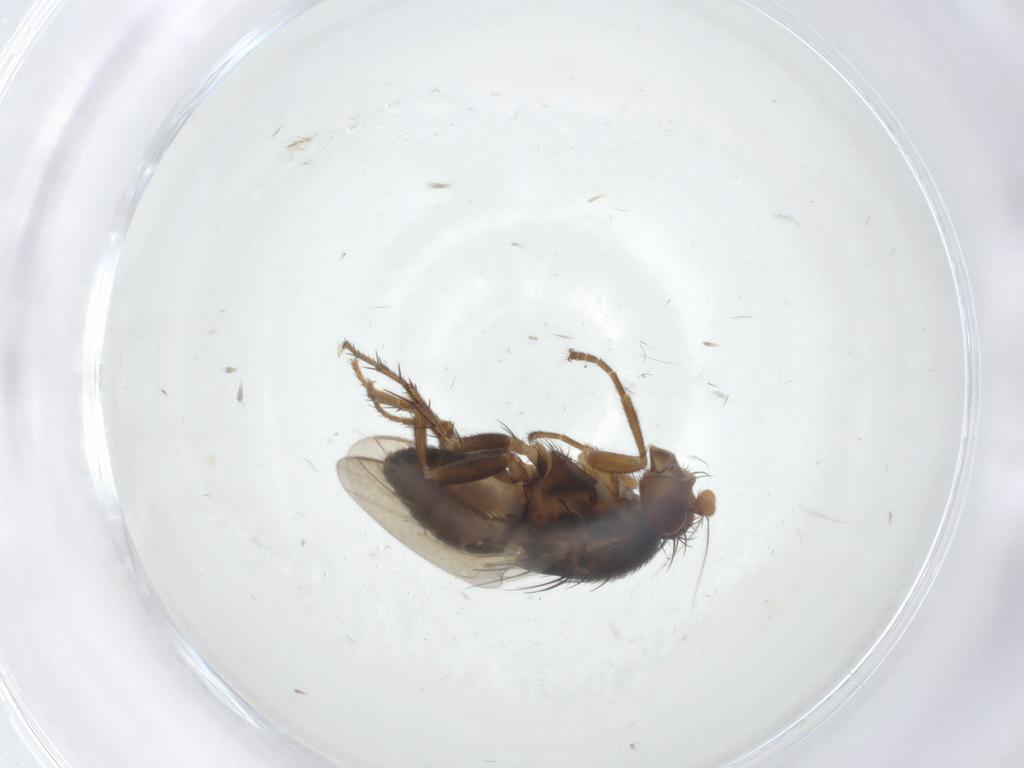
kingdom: Animalia
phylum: Arthropoda
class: Insecta
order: Diptera
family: Sphaeroceridae
